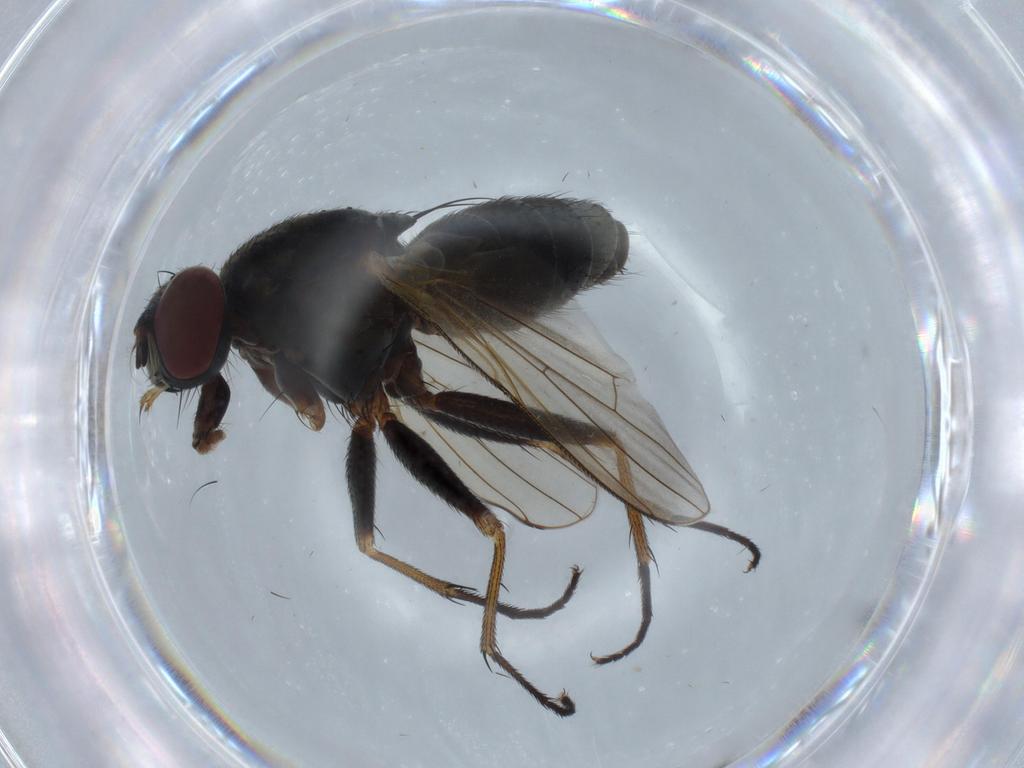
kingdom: Animalia
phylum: Arthropoda
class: Insecta
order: Diptera
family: Muscidae
